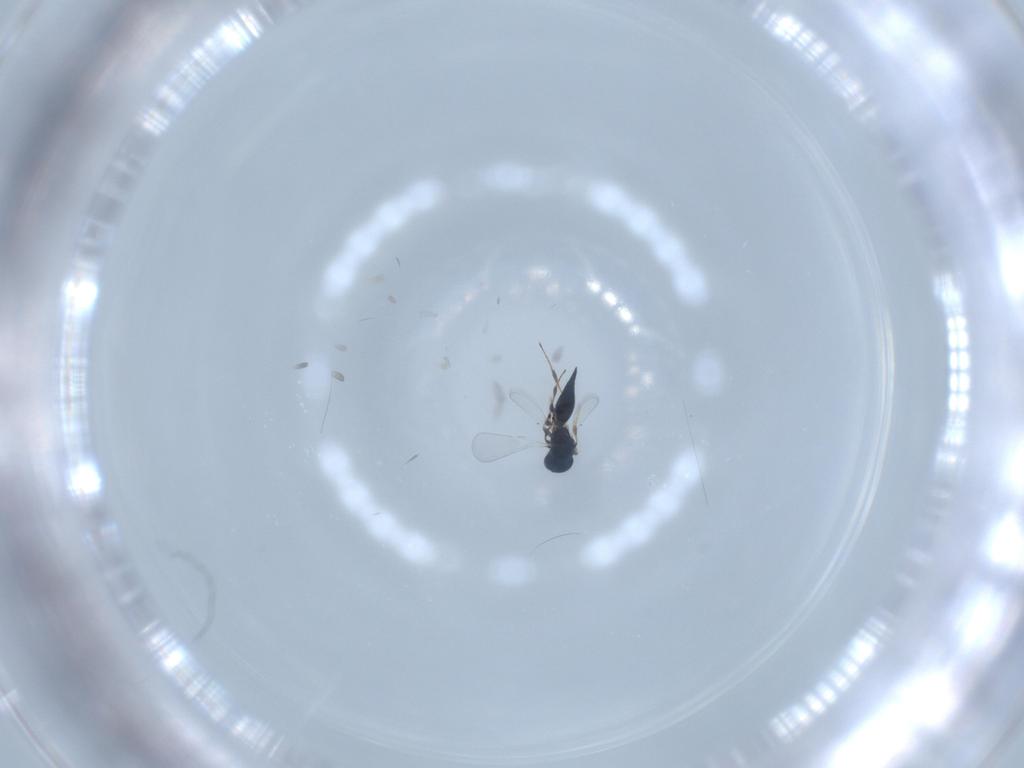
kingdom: Animalia
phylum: Arthropoda
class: Insecta
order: Hymenoptera
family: Platygastridae
